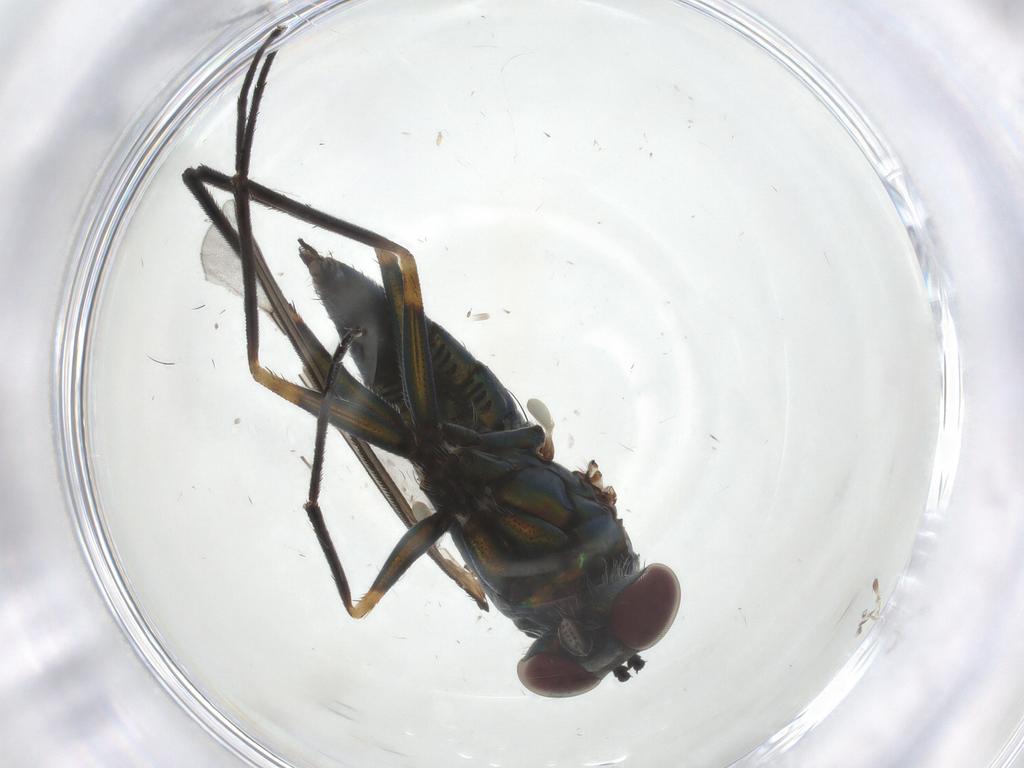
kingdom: Animalia
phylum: Arthropoda
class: Insecta
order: Diptera
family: Dolichopodidae
